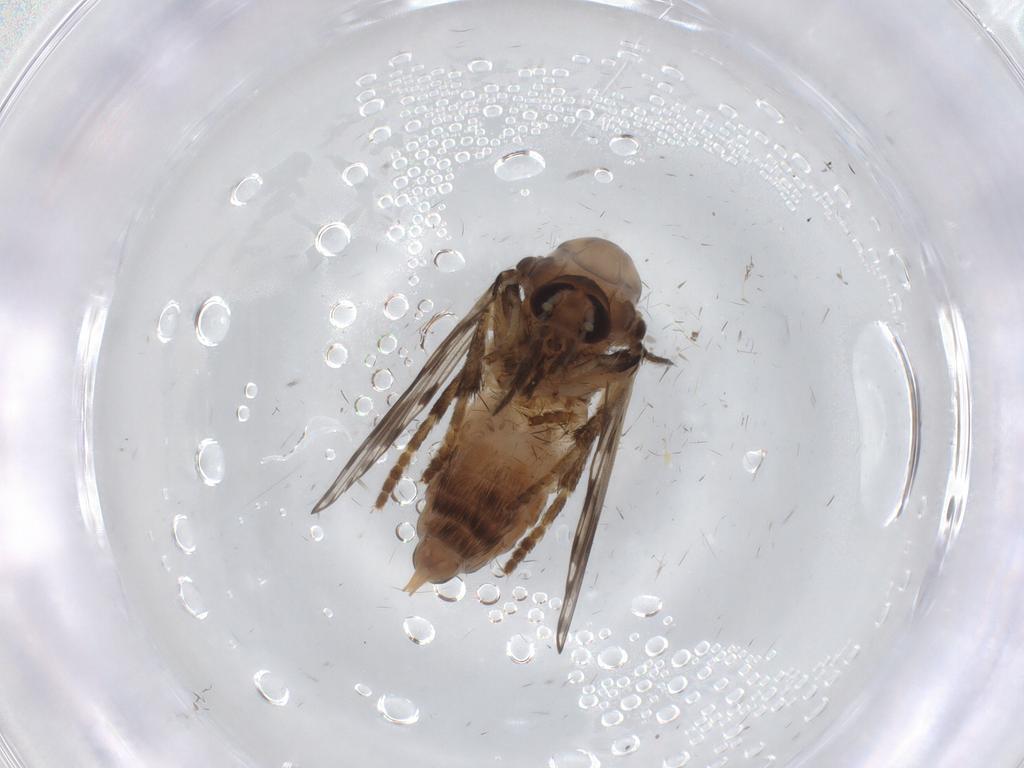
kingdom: Animalia
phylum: Arthropoda
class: Insecta
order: Diptera
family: Psychodidae
